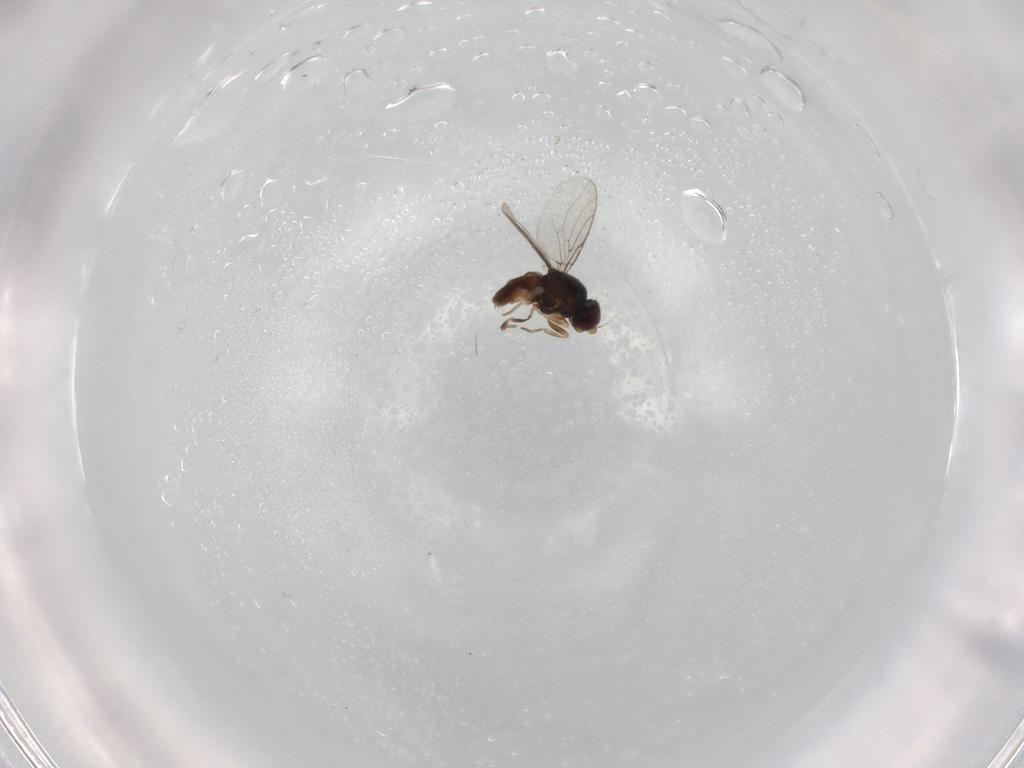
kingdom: Animalia
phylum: Arthropoda
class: Insecta
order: Diptera
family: Chloropidae
